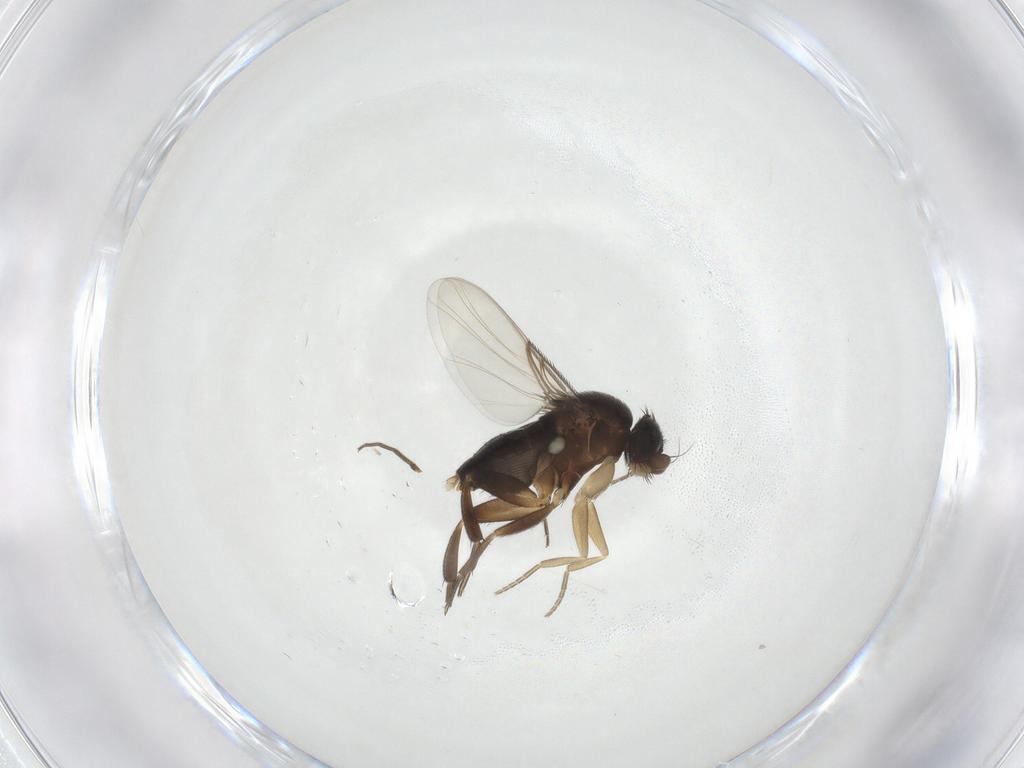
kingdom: Animalia
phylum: Arthropoda
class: Insecta
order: Diptera
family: Phoridae
